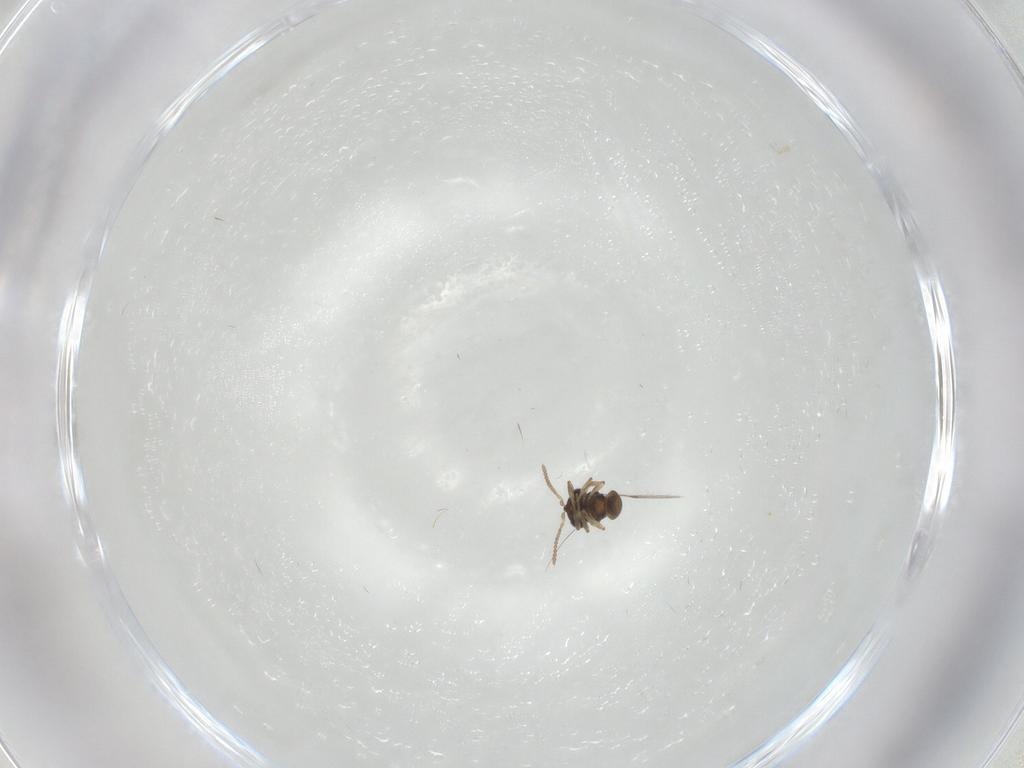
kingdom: Animalia
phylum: Arthropoda
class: Insecta
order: Hymenoptera
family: Scelionidae
